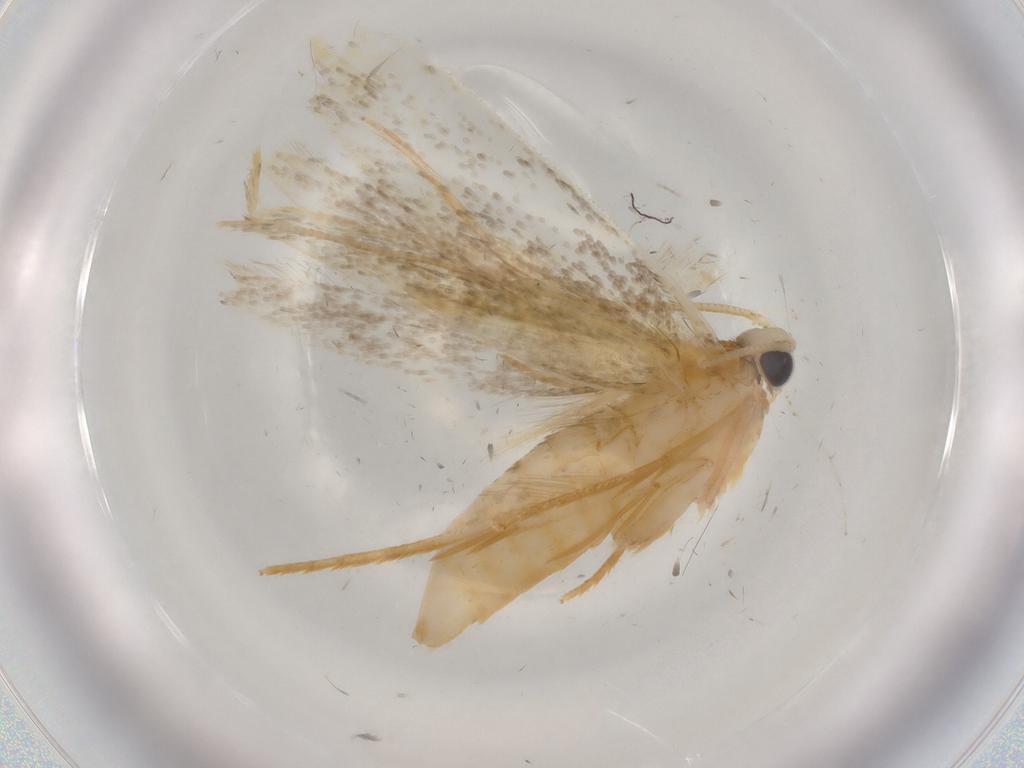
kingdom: Animalia
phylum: Arthropoda
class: Insecta
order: Lepidoptera
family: Tineidae
